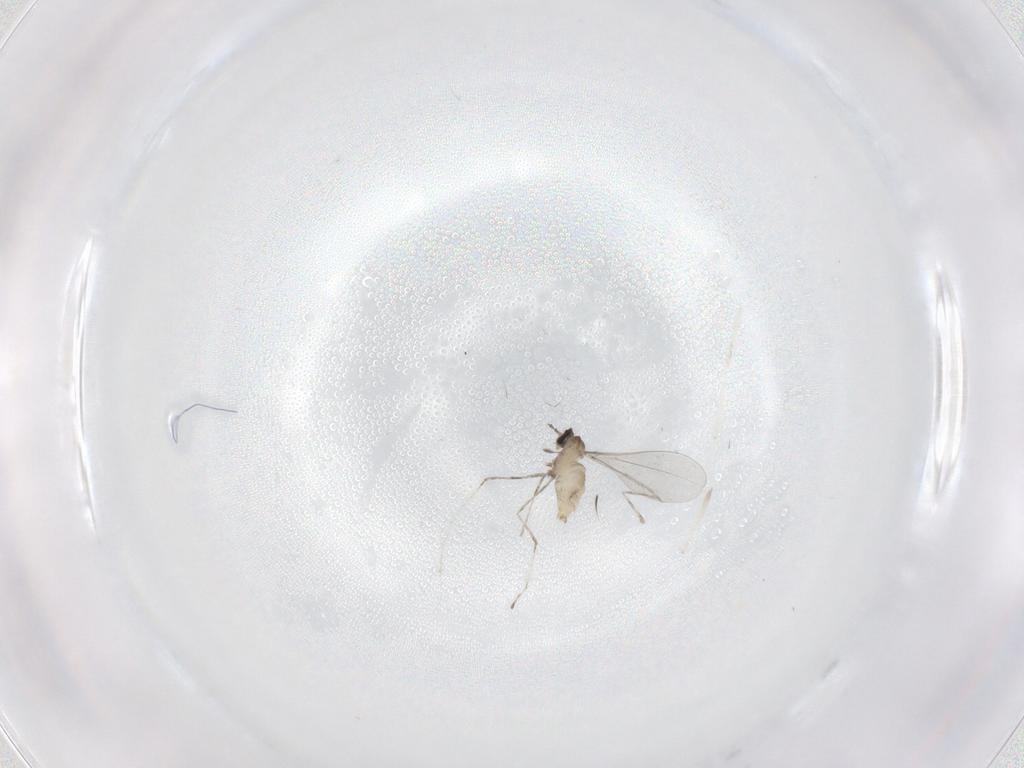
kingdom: Animalia
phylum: Arthropoda
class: Insecta
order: Diptera
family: Cecidomyiidae
